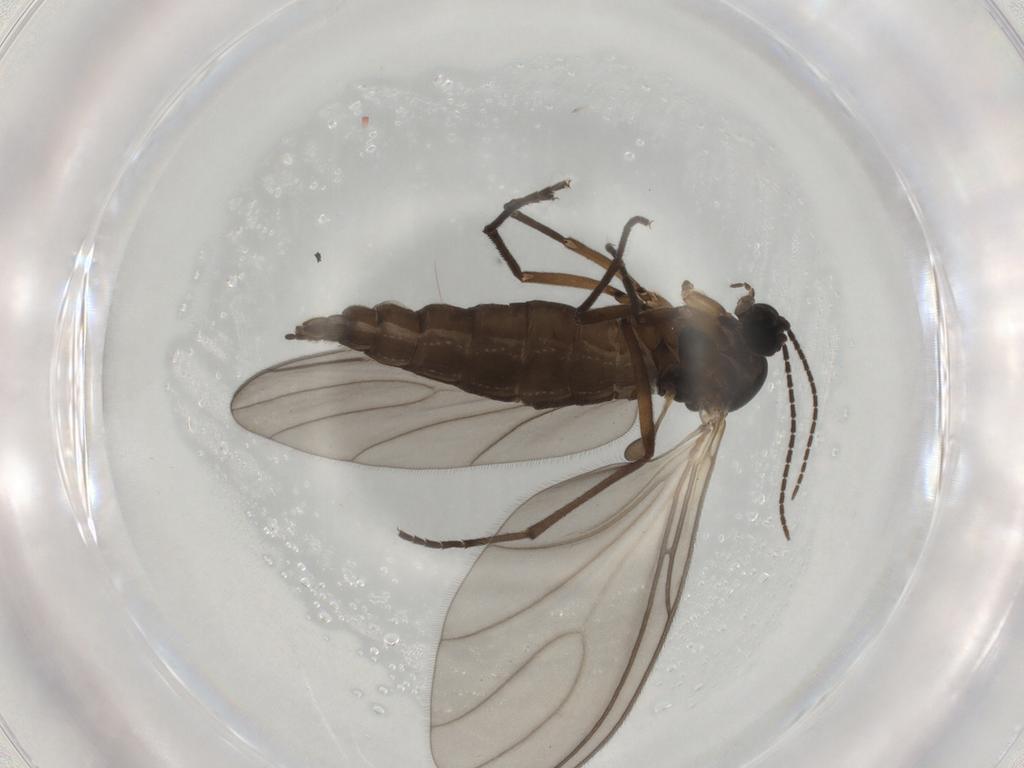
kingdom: Animalia
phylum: Arthropoda
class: Insecta
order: Diptera
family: Sciaridae
